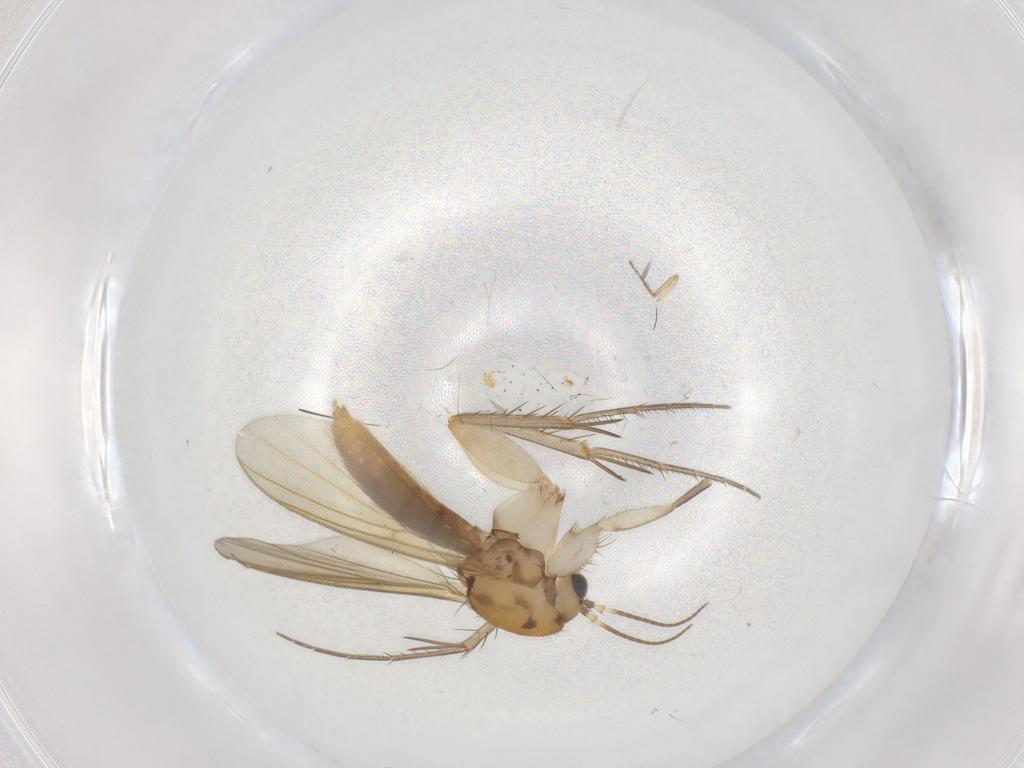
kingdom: Animalia
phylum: Arthropoda
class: Insecta
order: Diptera
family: Mycetophilidae
